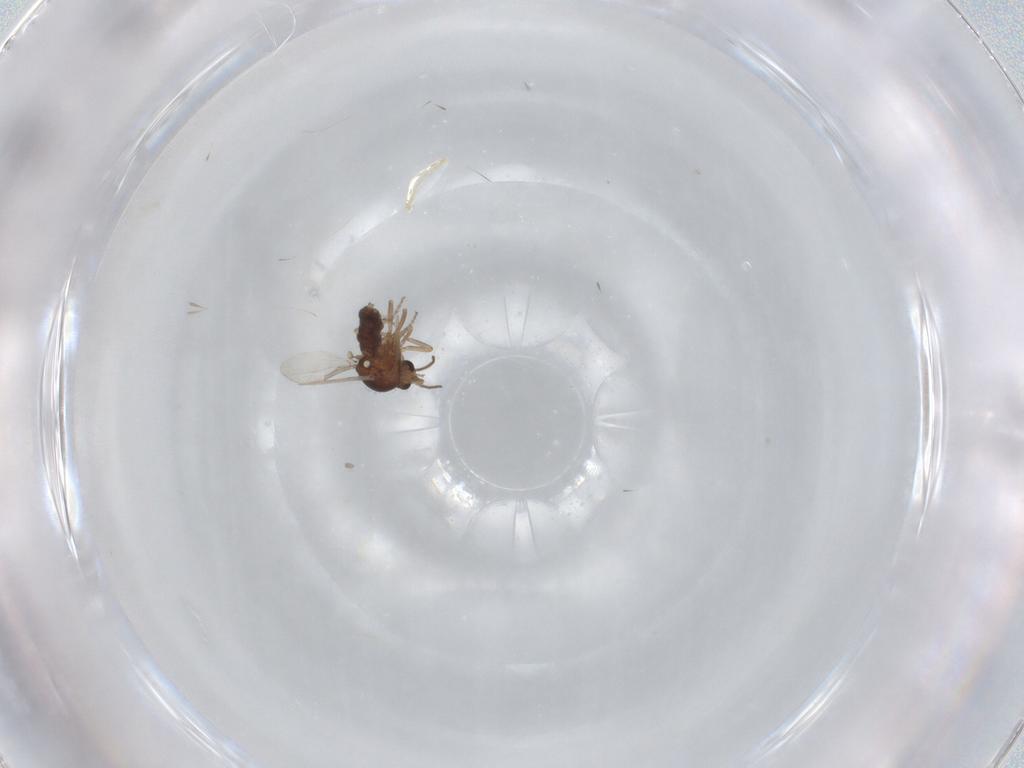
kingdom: Animalia
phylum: Arthropoda
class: Insecta
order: Diptera
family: Ceratopogonidae
